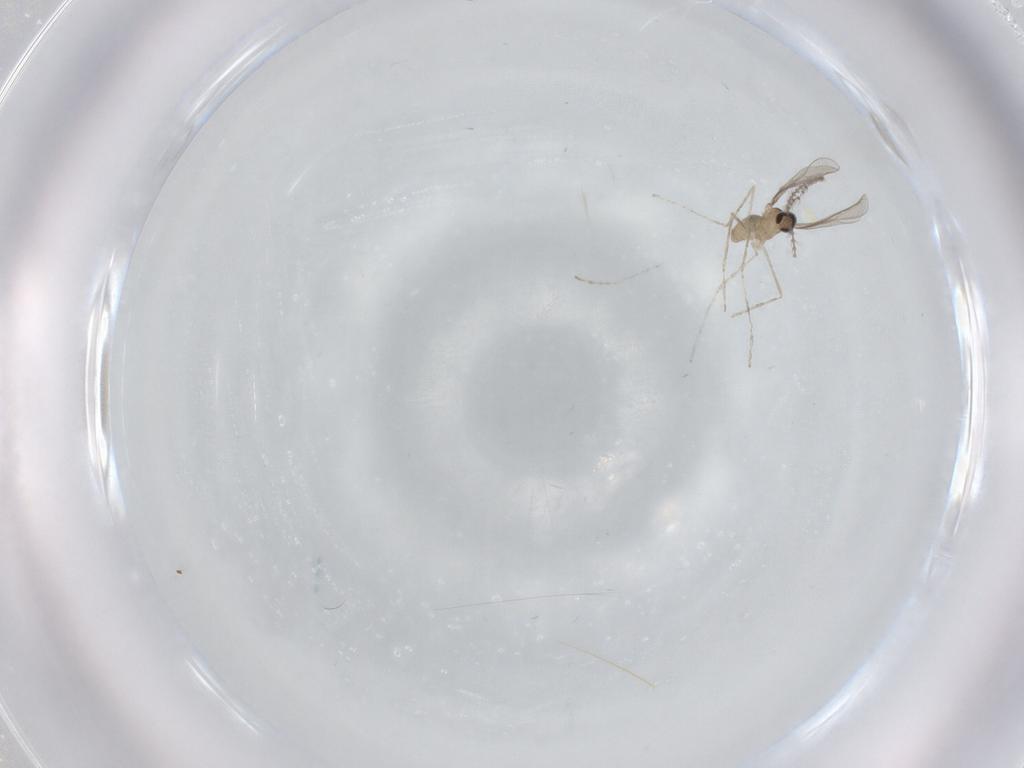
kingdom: Animalia
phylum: Arthropoda
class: Insecta
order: Diptera
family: Cecidomyiidae
